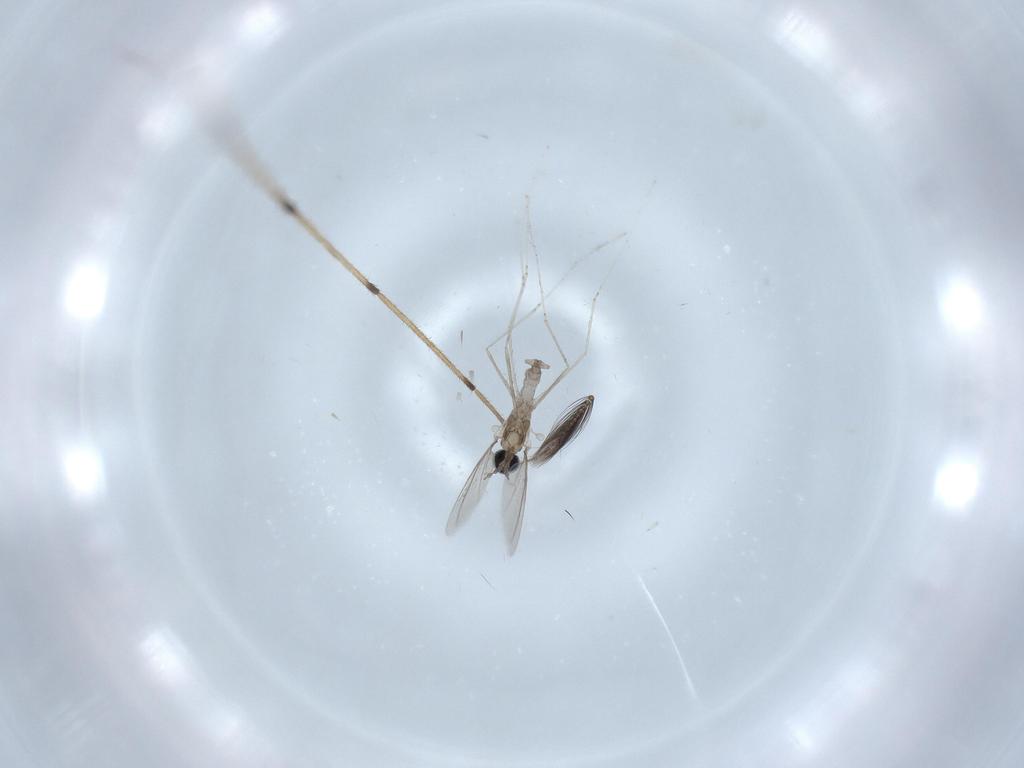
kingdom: Animalia
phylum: Arthropoda
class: Insecta
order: Diptera
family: Cecidomyiidae
